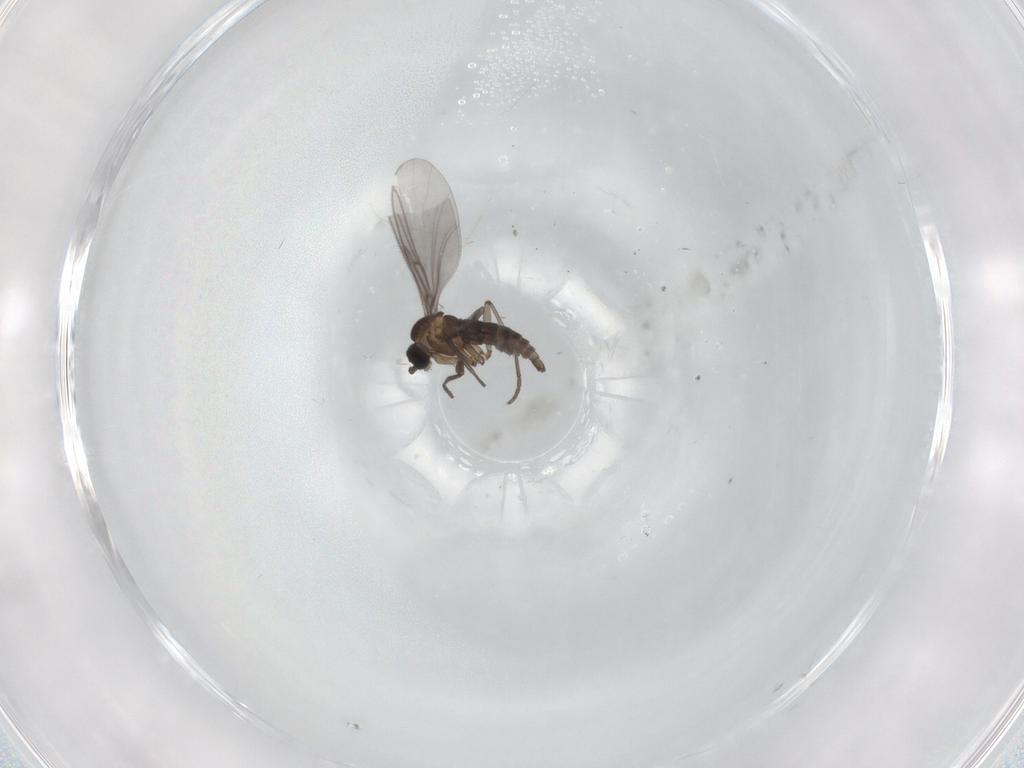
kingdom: Animalia
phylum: Arthropoda
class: Insecta
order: Diptera
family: Sciaridae
